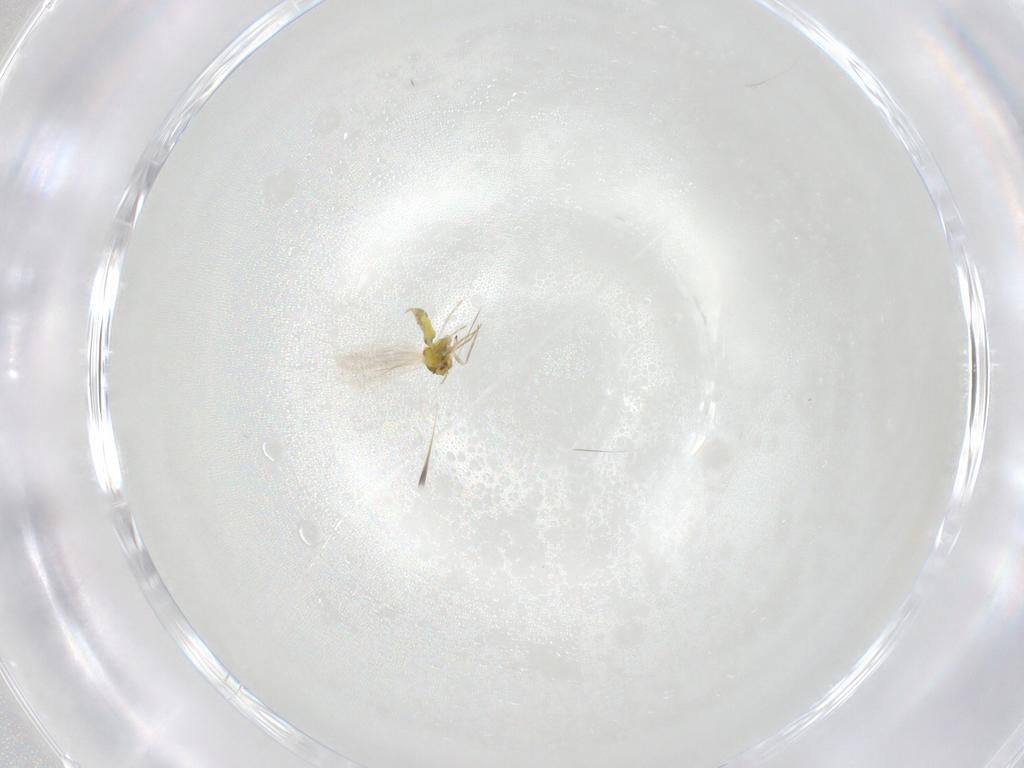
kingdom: Animalia
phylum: Arthropoda
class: Insecta
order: Hemiptera
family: Aleyrodidae
